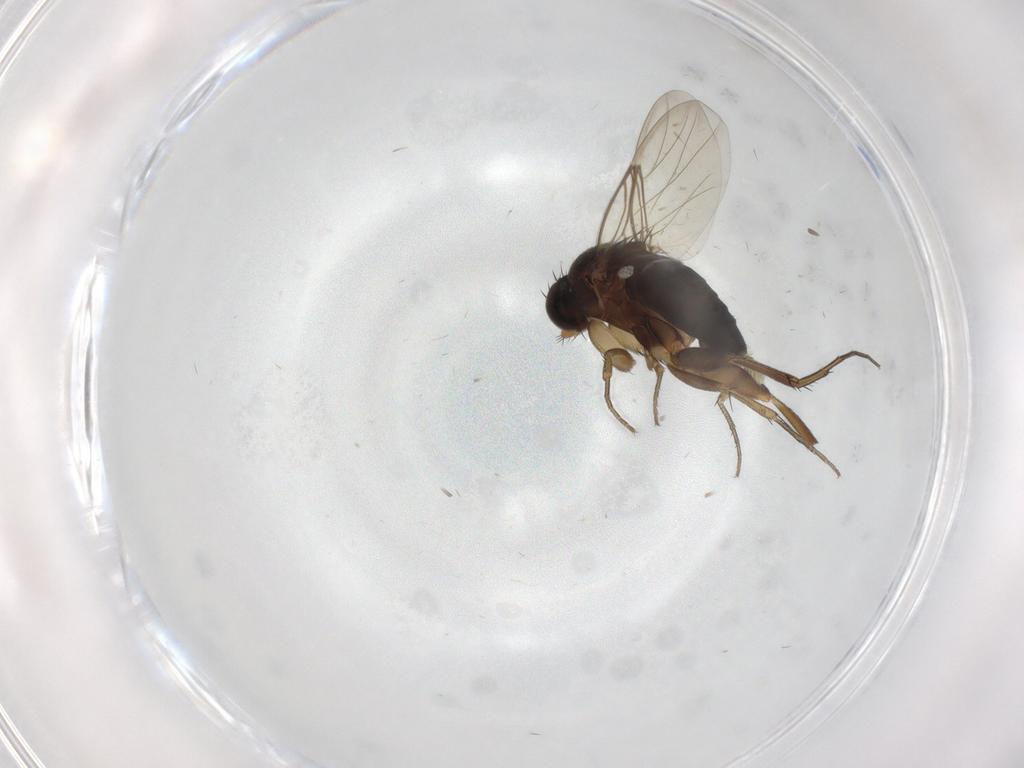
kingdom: Animalia
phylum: Arthropoda
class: Insecta
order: Diptera
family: Phoridae
